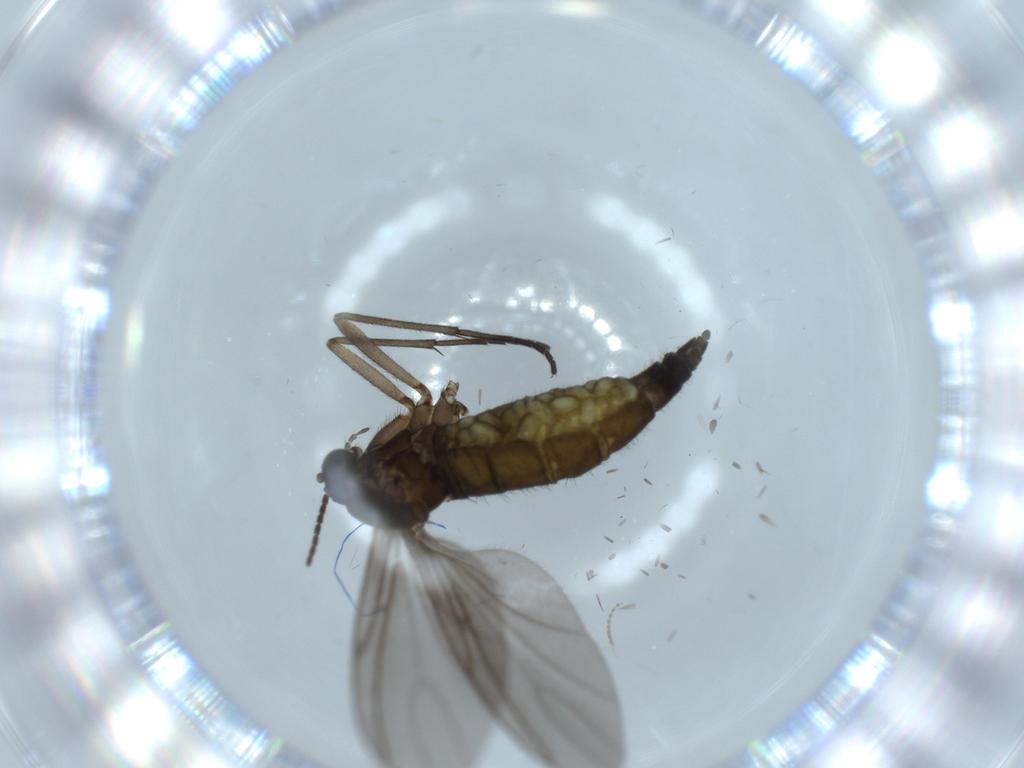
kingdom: Animalia
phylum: Arthropoda
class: Insecta
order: Diptera
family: Sciaridae
